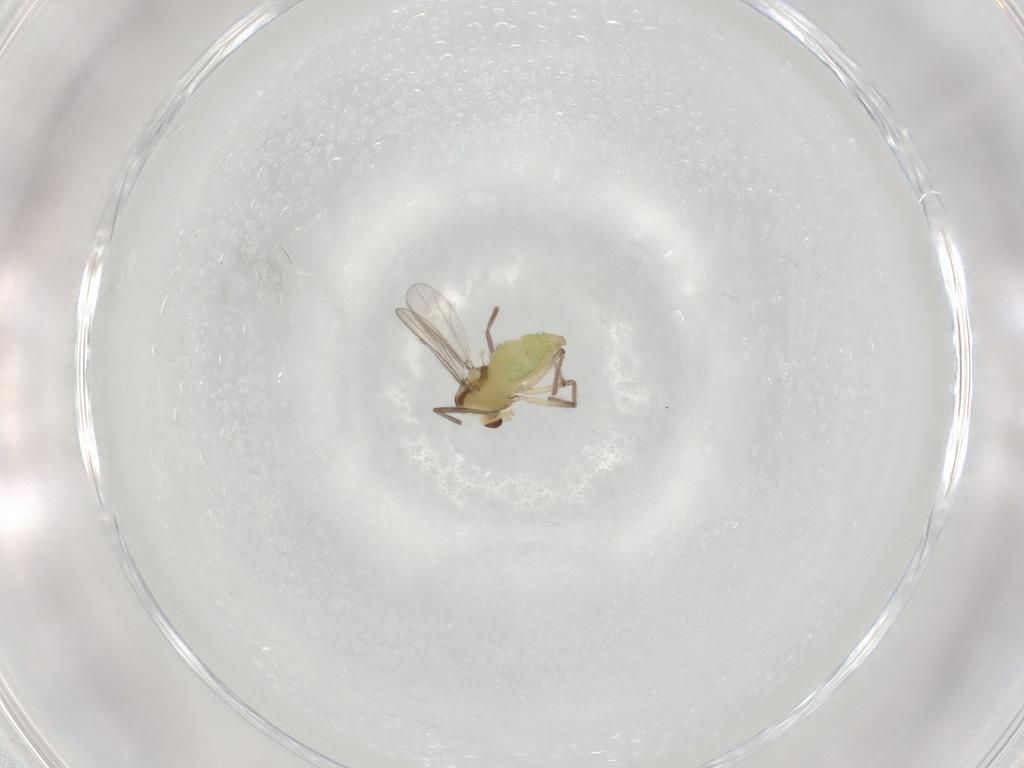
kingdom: Animalia
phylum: Arthropoda
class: Insecta
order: Diptera
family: Chironomidae
